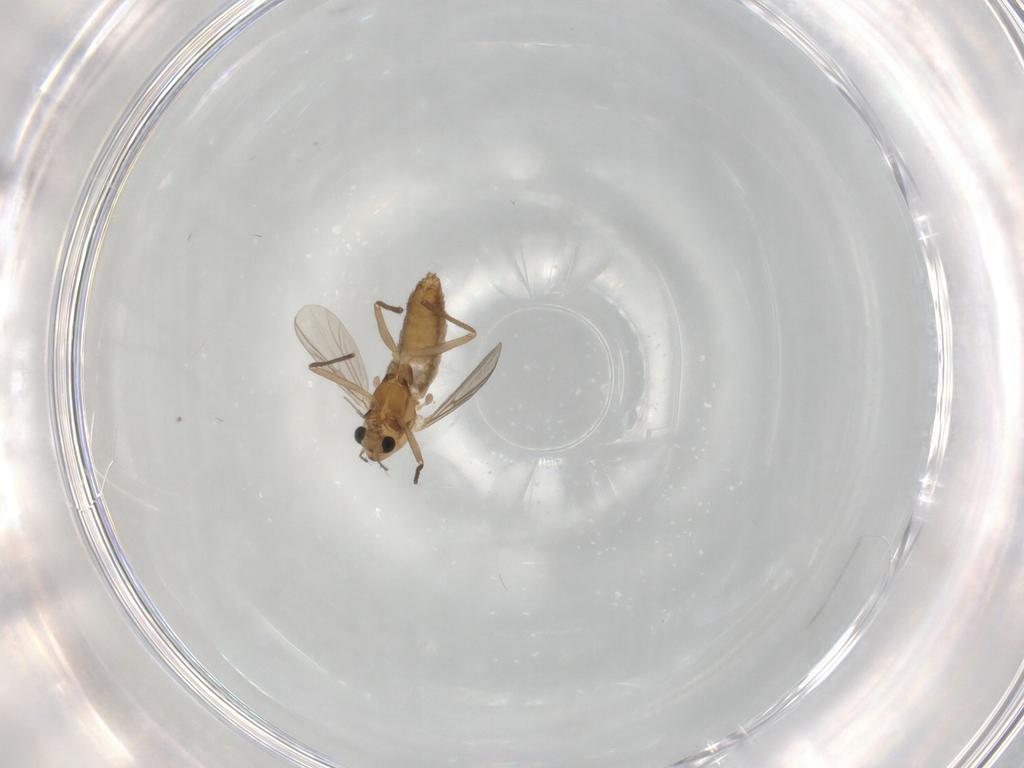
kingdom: Animalia
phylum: Arthropoda
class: Insecta
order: Diptera
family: Chironomidae
